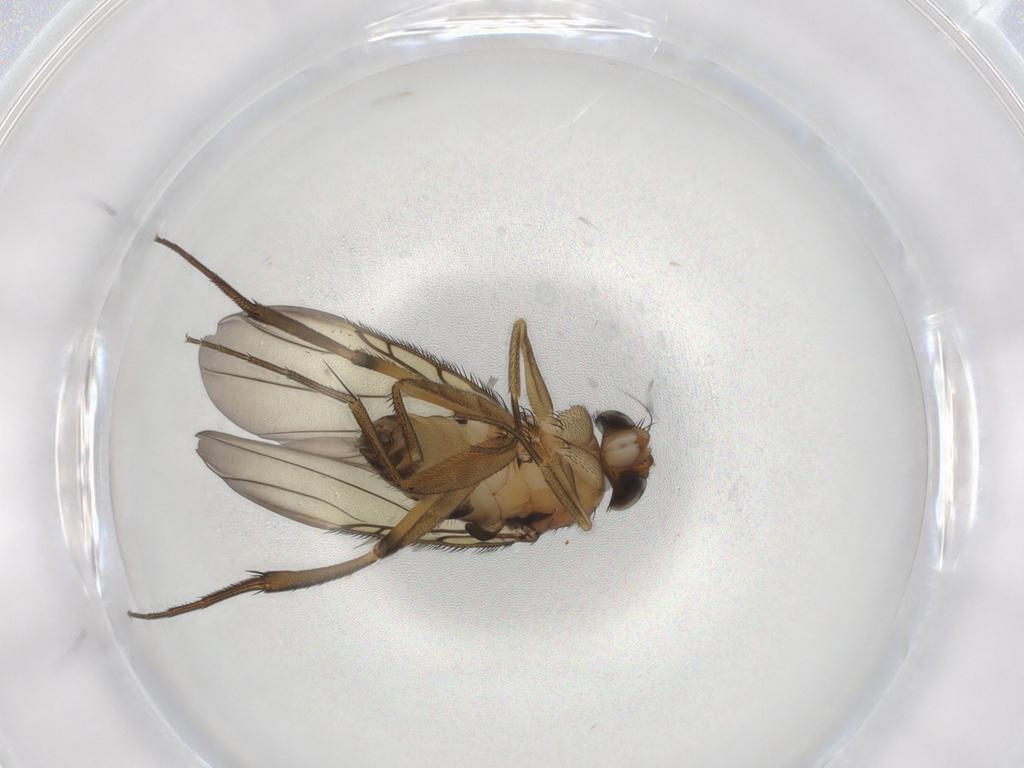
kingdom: Animalia
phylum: Arthropoda
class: Insecta
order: Diptera
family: Mycetophilidae
